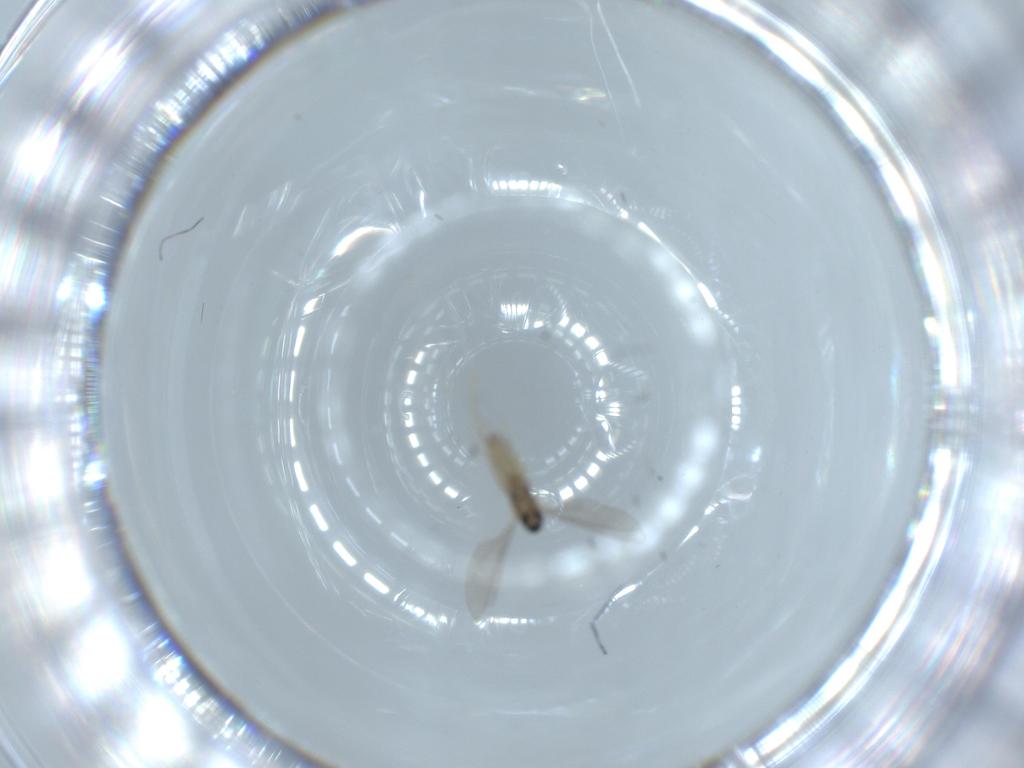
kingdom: Animalia
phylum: Arthropoda
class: Insecta
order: Diptera
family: Cecidomyiidae
